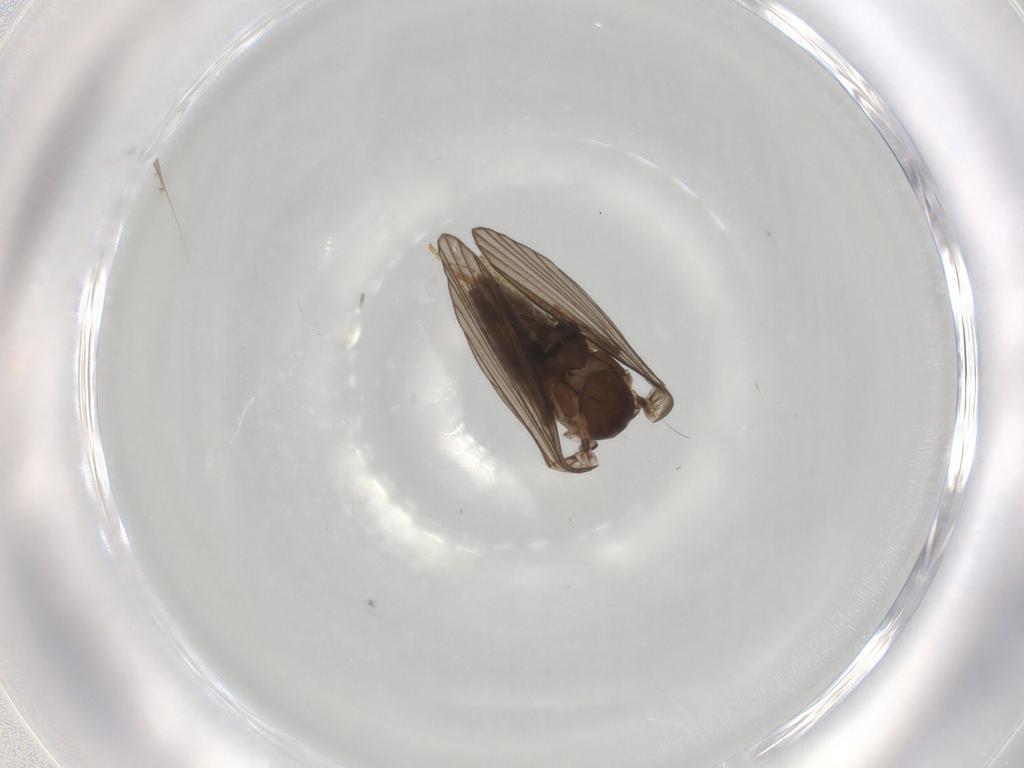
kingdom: Animalia
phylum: Arthropoda
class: Insecta
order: Diptera
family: Psychodidae
